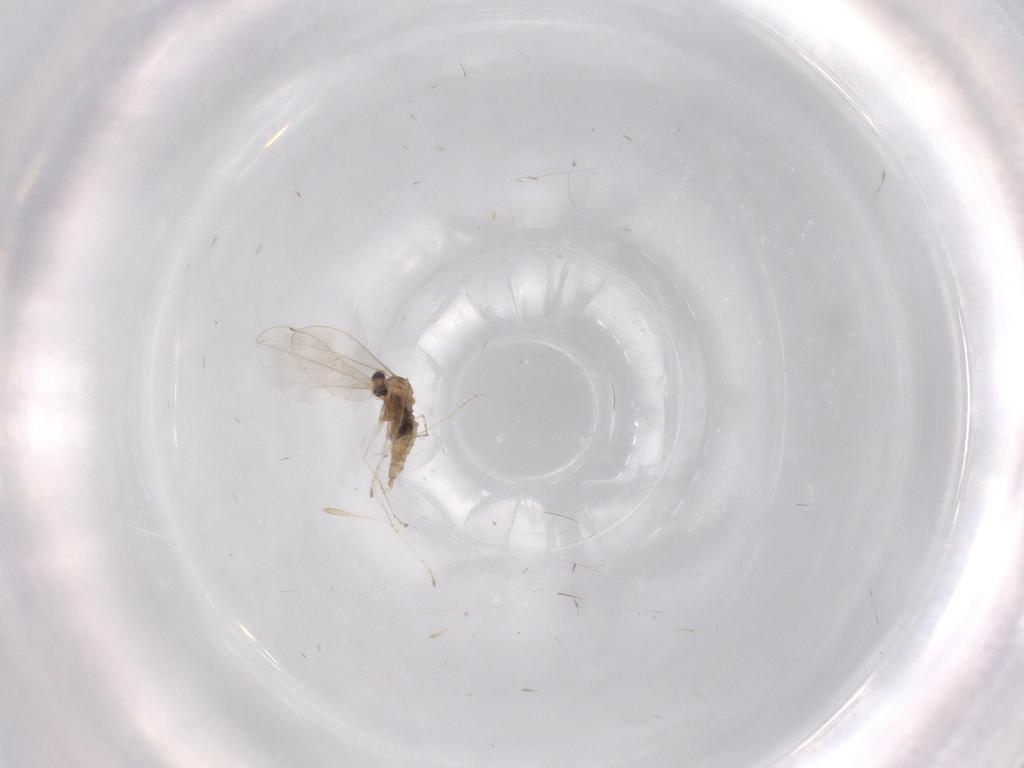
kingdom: Animalia
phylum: Arthropoda
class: Insecta
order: Diptera
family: Cecidomyiidae
